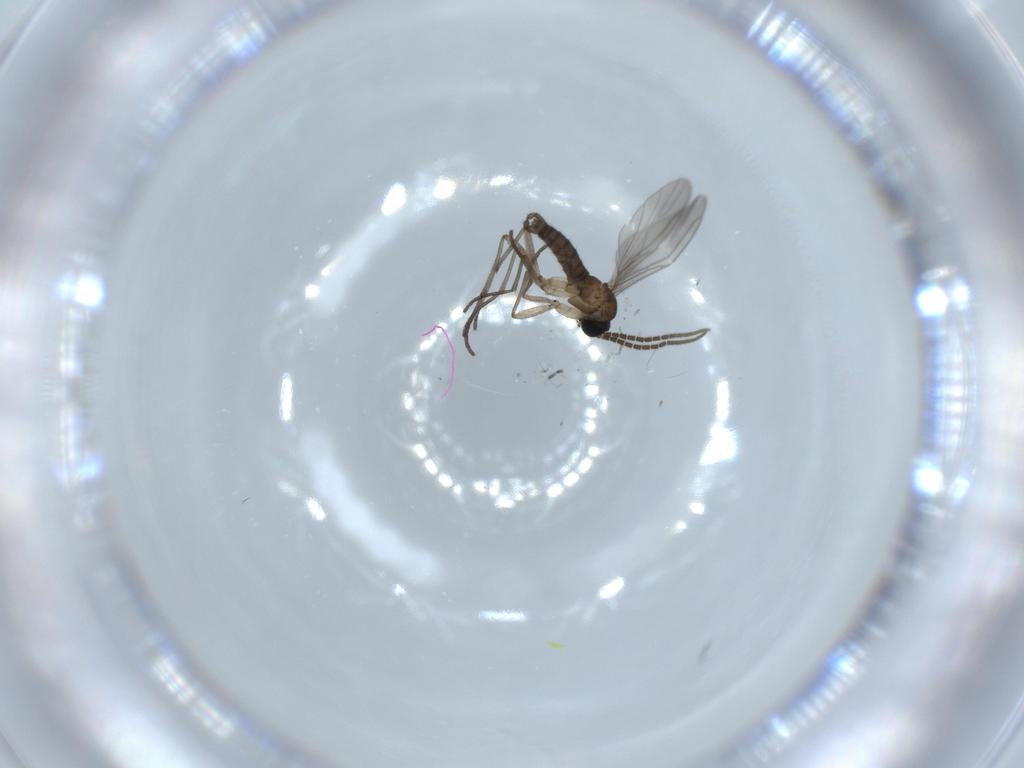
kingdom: Animalia
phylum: Arthropoda
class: Insecta
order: Diptera
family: Sciaridae
